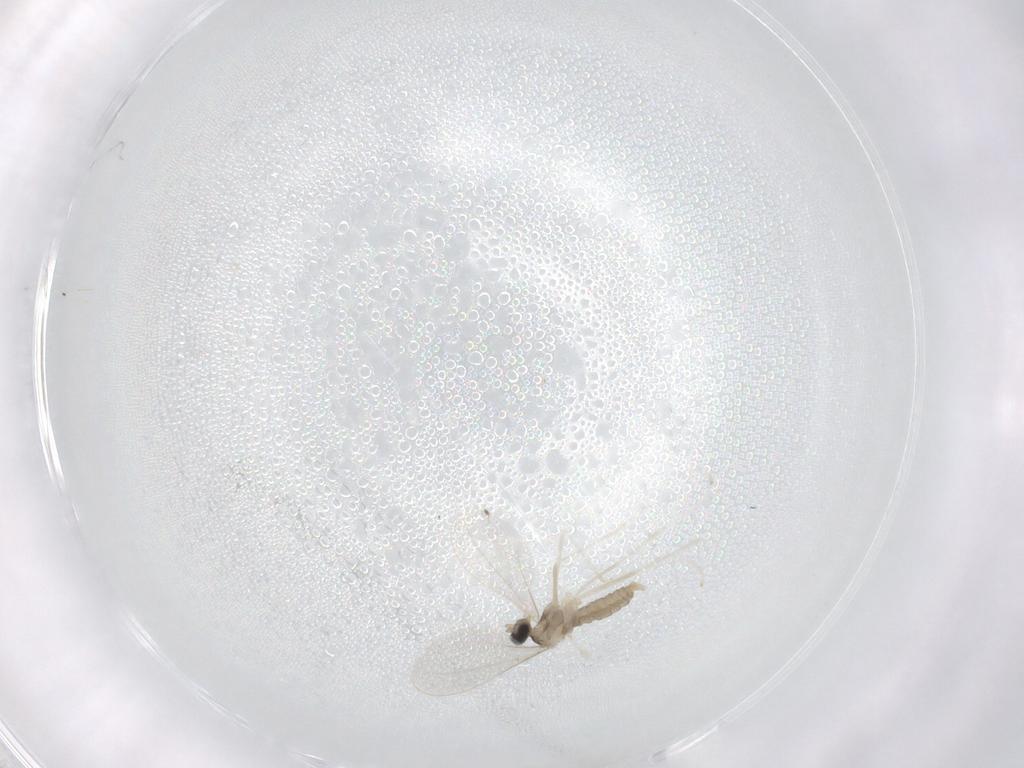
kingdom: Animalia
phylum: Arthropoda
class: Insecta
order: Diptera
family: Cecidomyiidae
